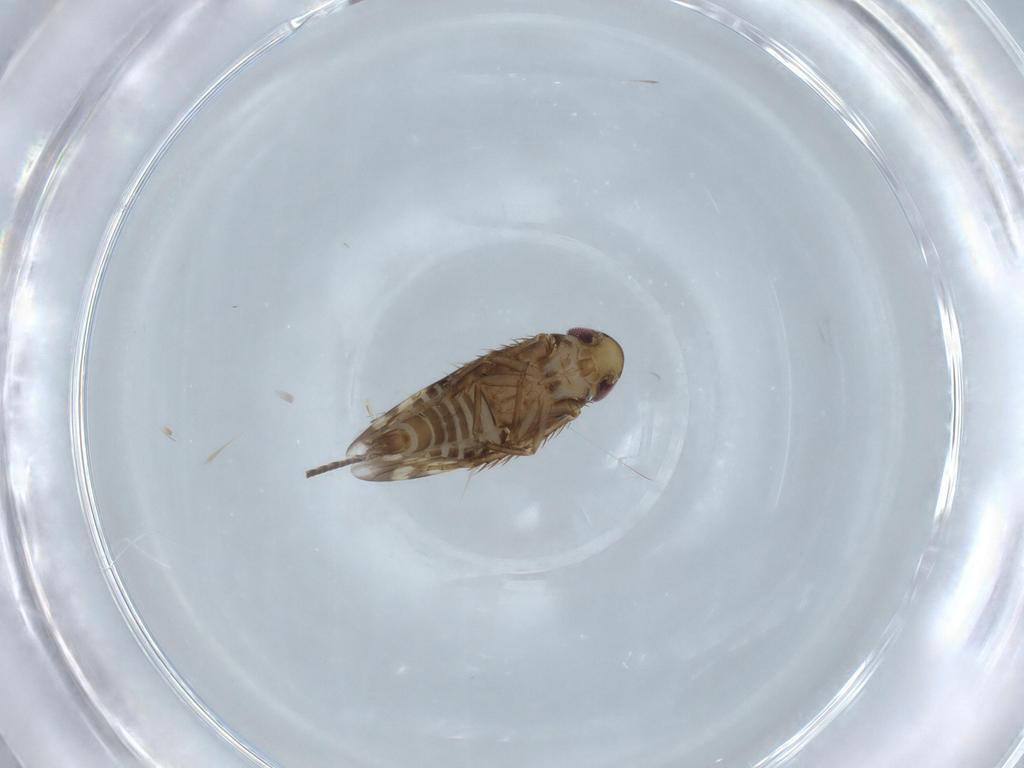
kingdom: Animalia
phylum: Arthropoda
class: Insecta
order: Hemiptera
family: Cicadellidae
